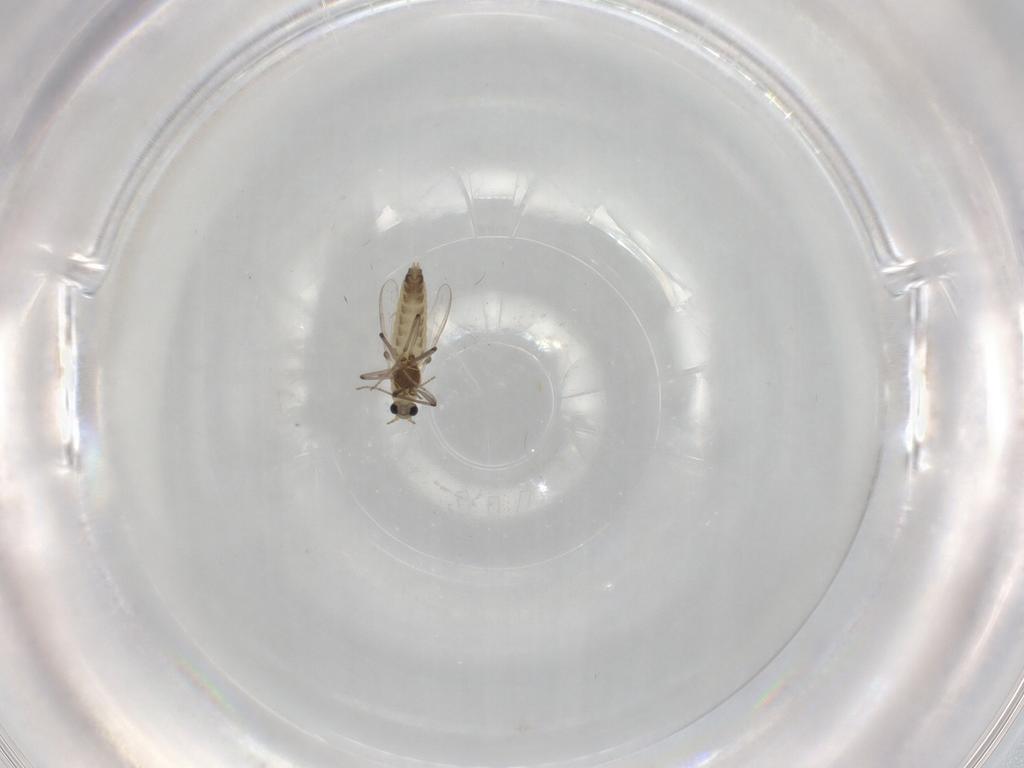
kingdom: Animalia
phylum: Arthropoda
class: Insecta
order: Diptera
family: Chironomidae
